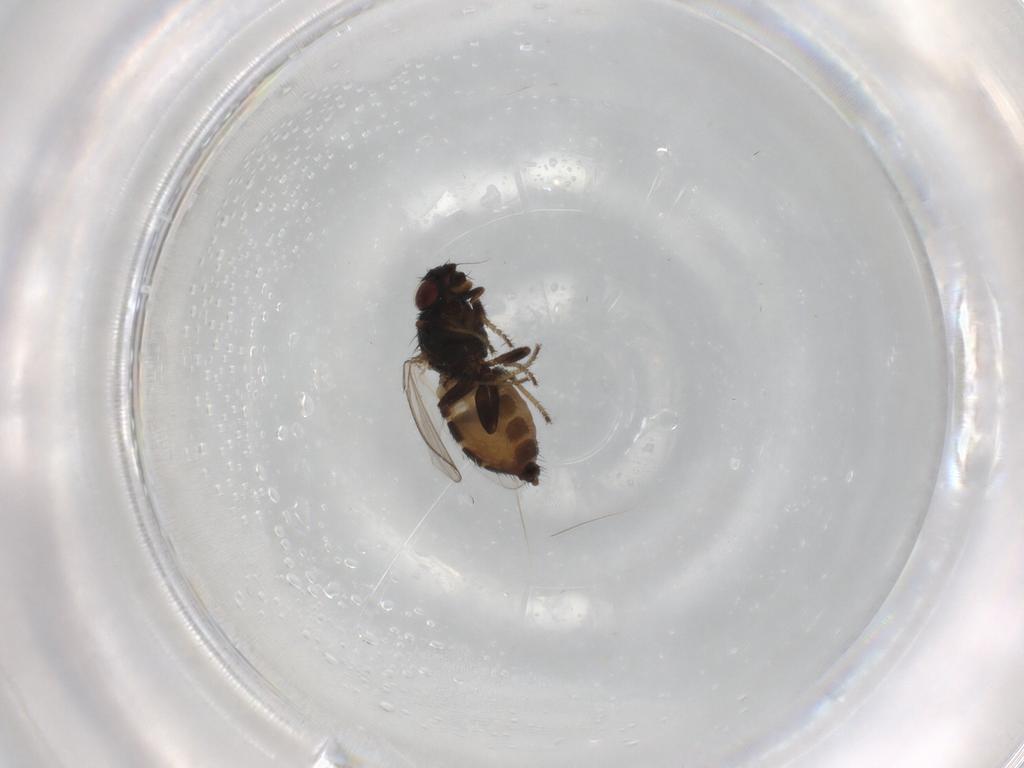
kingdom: Animalia
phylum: Arthropoda
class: Insecta
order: Diptera
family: Milichiidae
